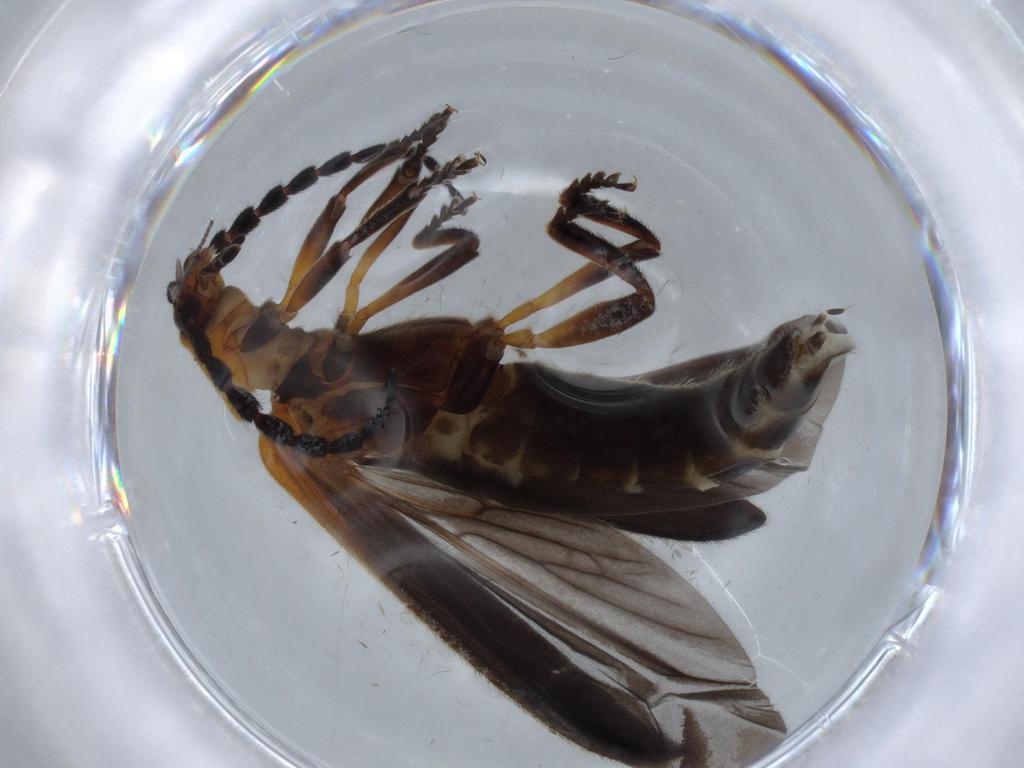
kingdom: Animalia
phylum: Arthropoda
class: Insecta
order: Coleoptera
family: Lycidae
